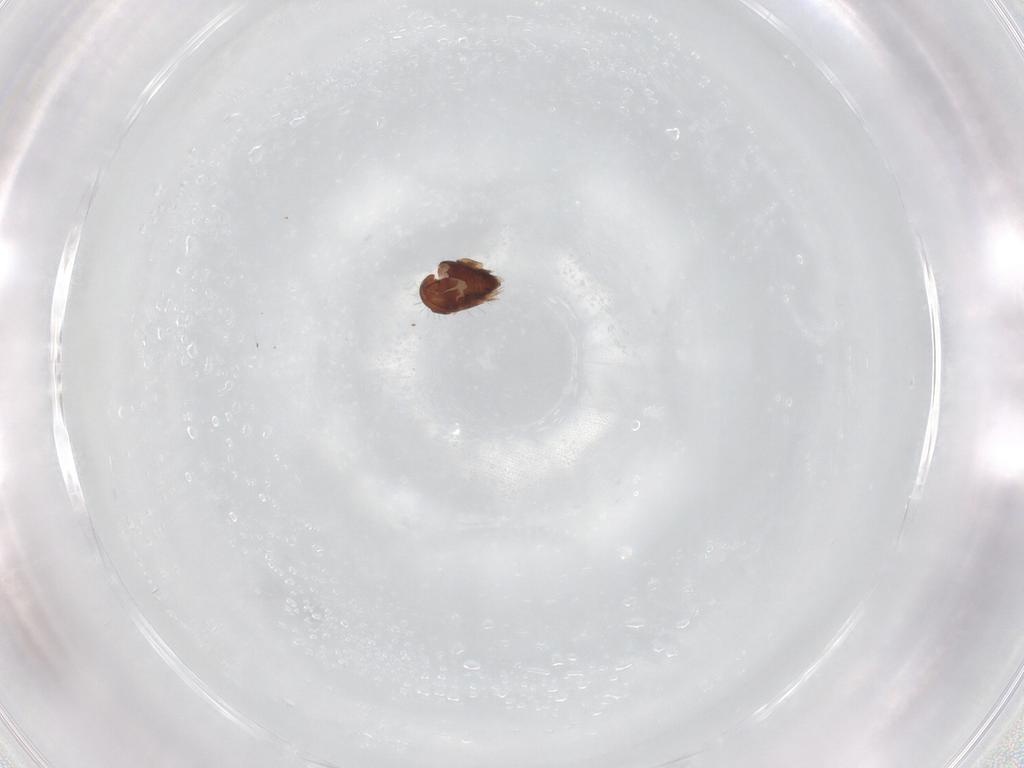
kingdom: Animalia
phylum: Arthropoda
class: Arachnida
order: Sarcoptiformes
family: Humerobatidae
